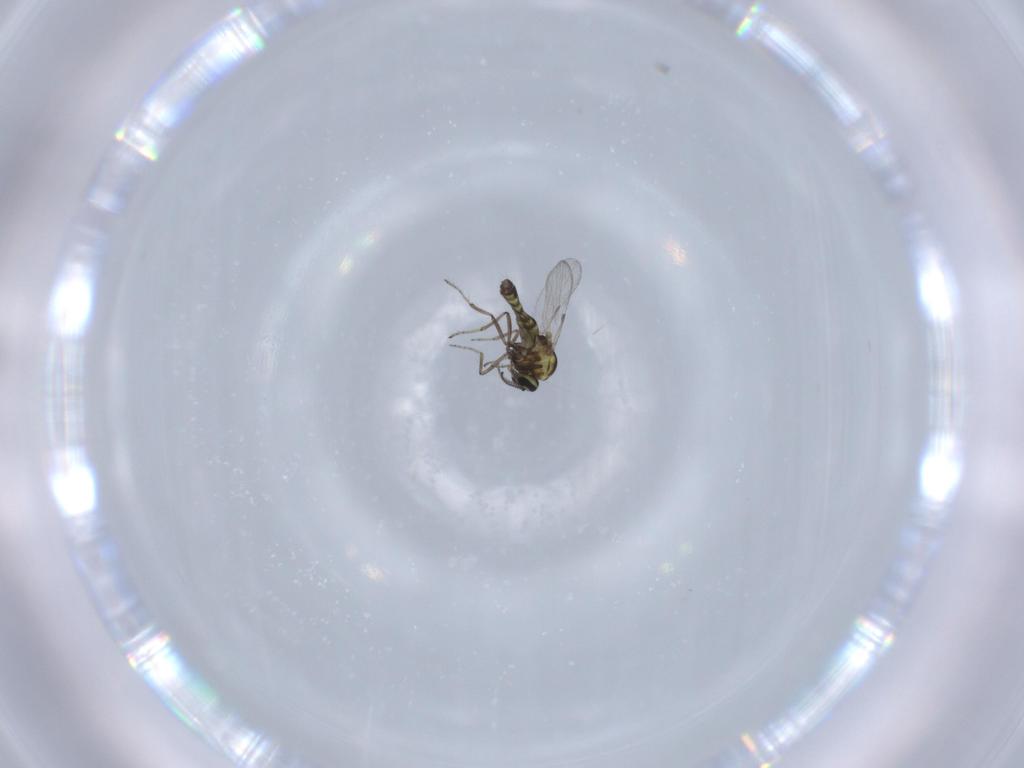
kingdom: Animalia
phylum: Arthropoda
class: Insecta
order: Diptera
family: Ceratopogonidae
